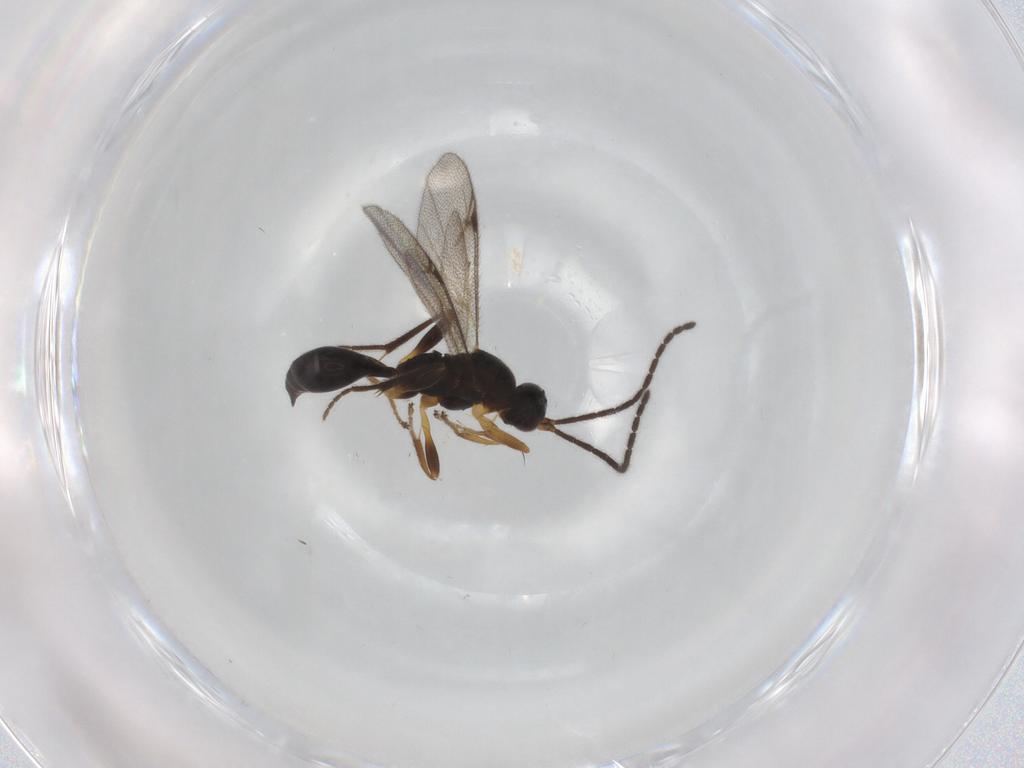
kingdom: Animalia
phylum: Arthropoda
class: Insecta
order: Hymenoptera
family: Proctotrupidae
